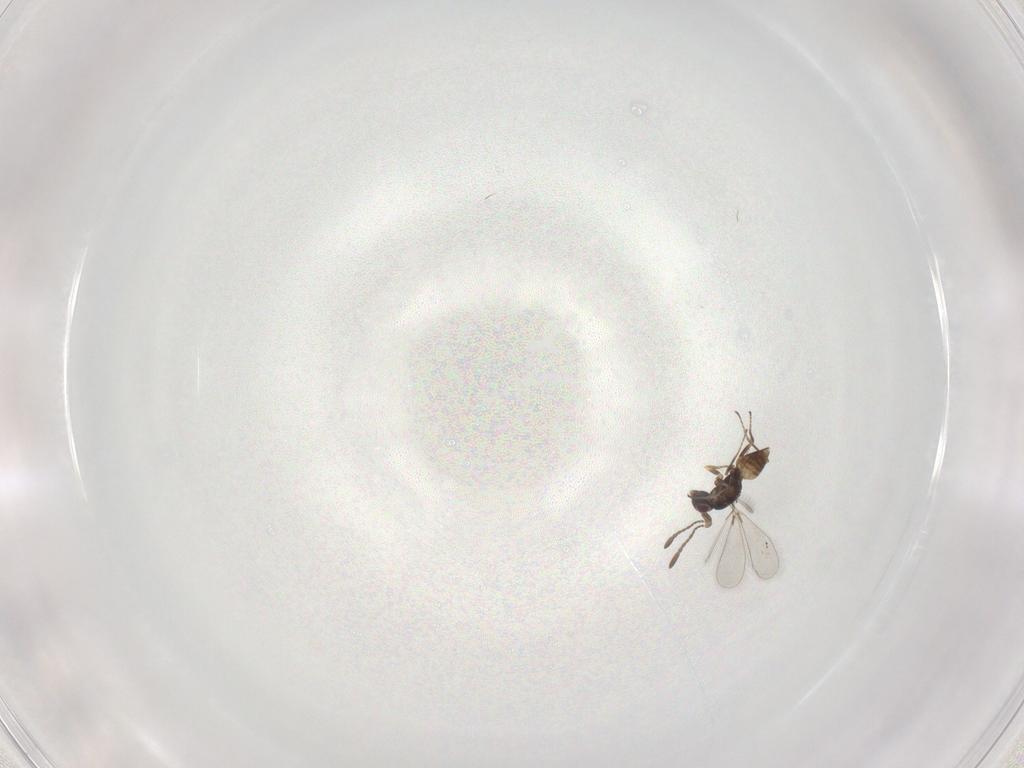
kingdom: Animalia
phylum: Arthropoda
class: Insecta
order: Hymenoptera
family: Mymaridae
